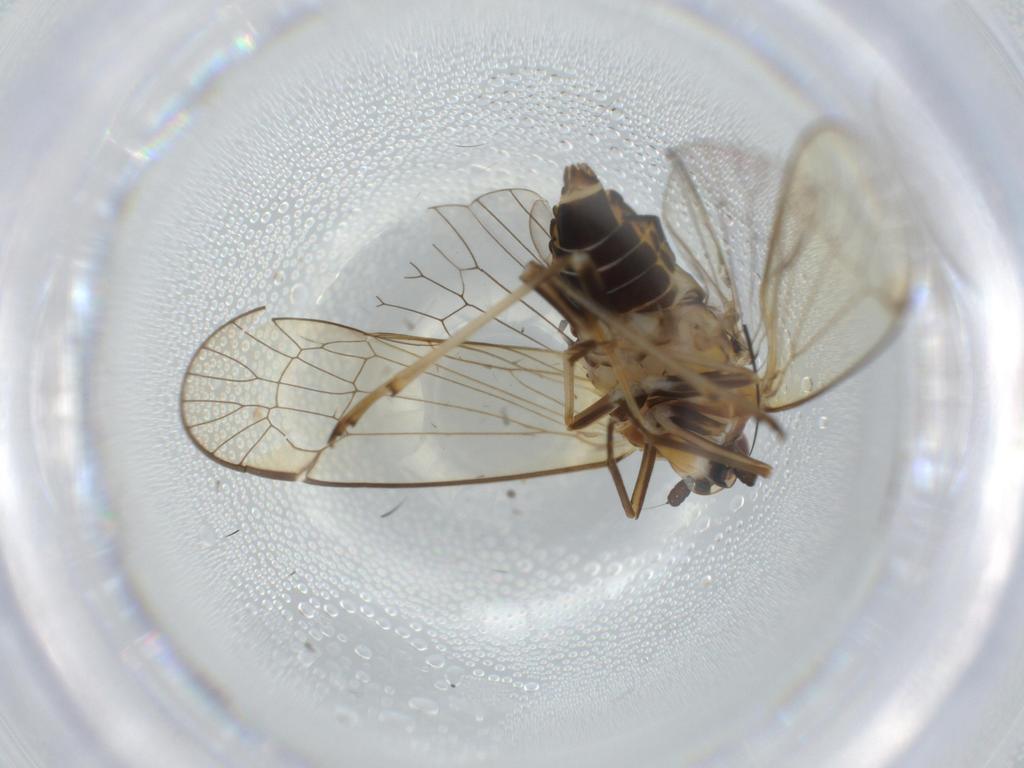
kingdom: Animalia
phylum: Arthropoda
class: Insecta
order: Hemiptera
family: Kinnaridae
